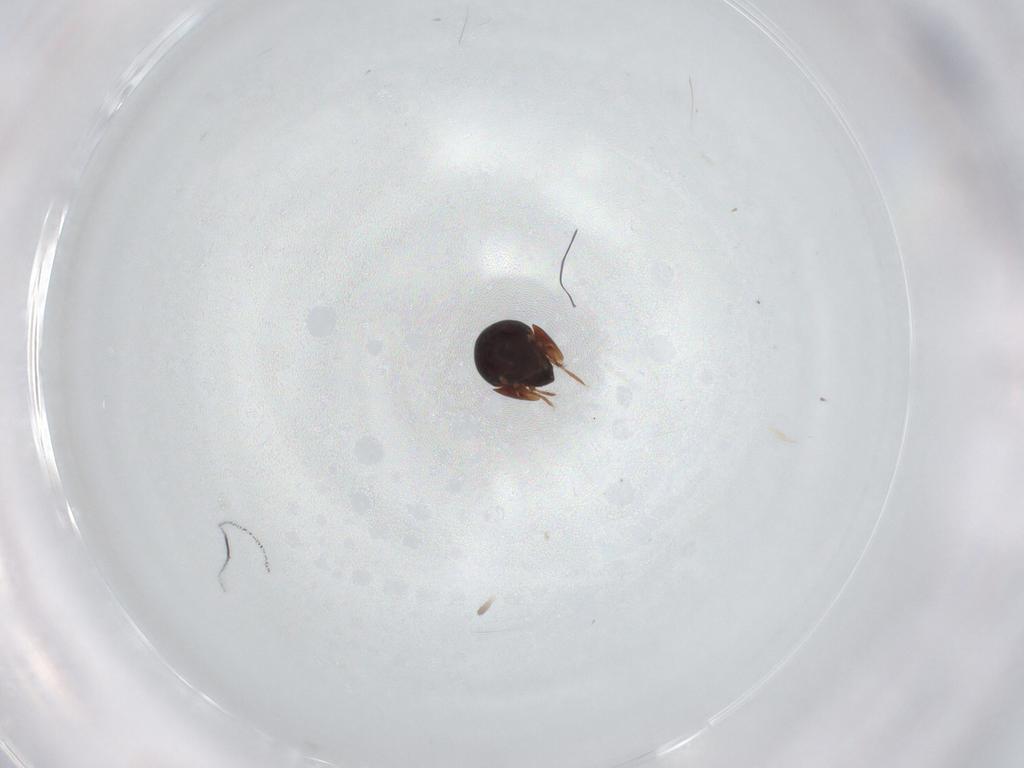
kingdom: Animalia
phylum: Arthropoda
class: Arachnida
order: Sarcoptiformes
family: Ceratozetidae
